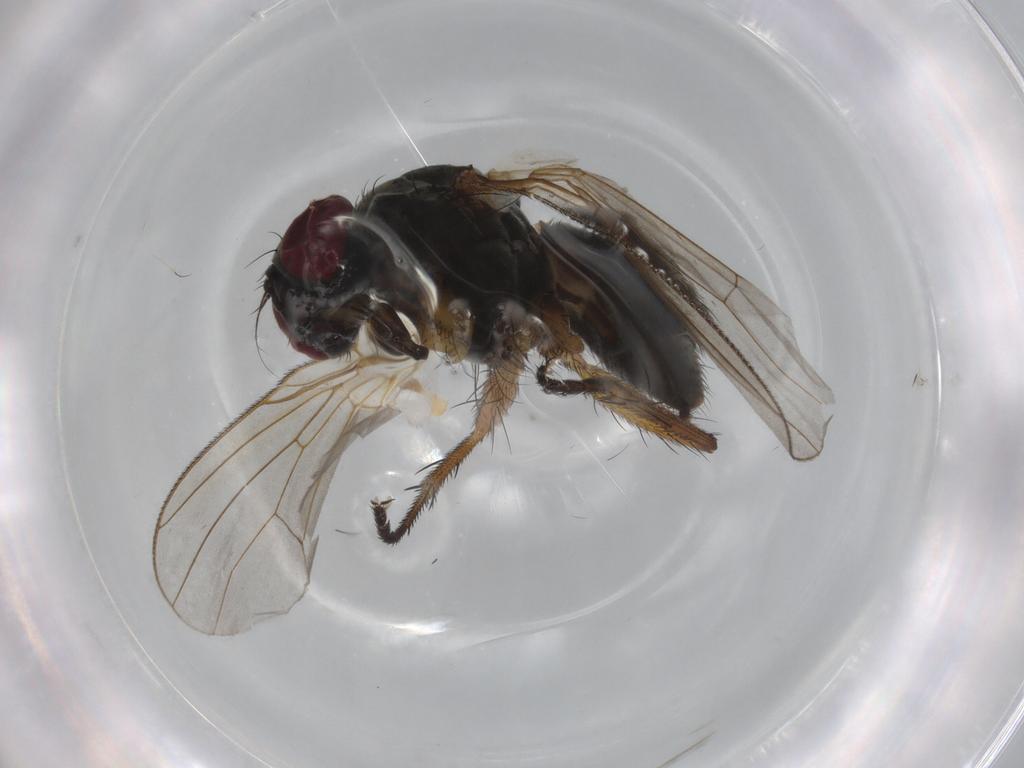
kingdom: Animalia
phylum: Arthropoda
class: Insecta
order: Diptera
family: Muscidae
